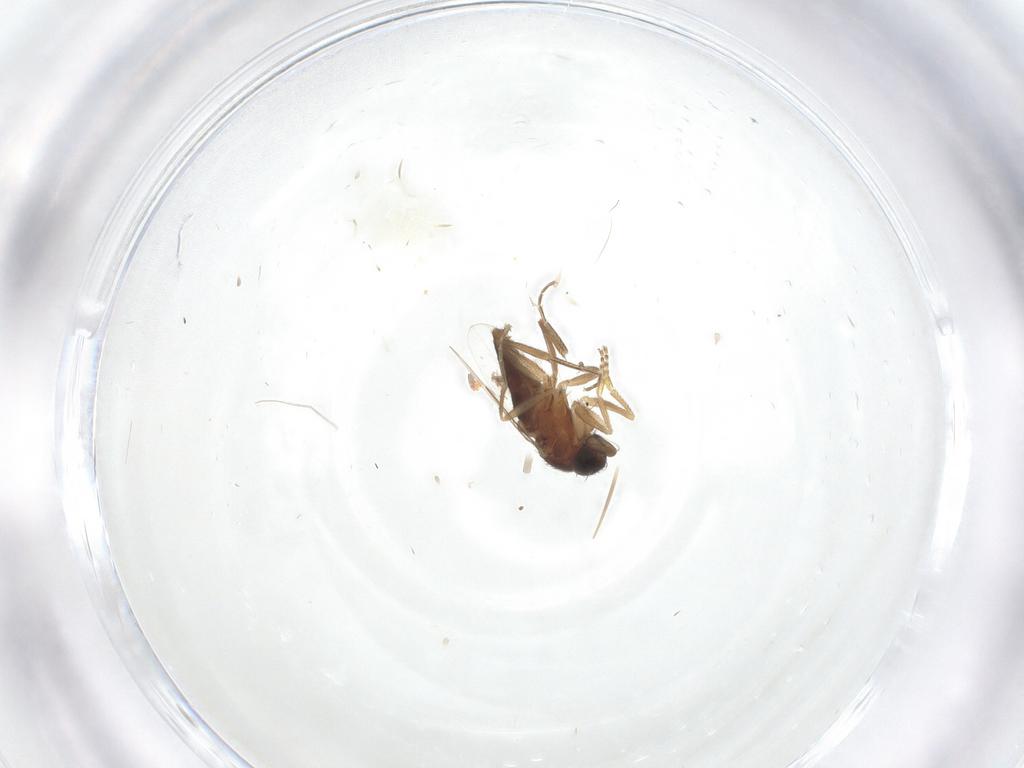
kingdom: Animalia
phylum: Arthropoda
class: Insecta
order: Diptera
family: Phoridae
